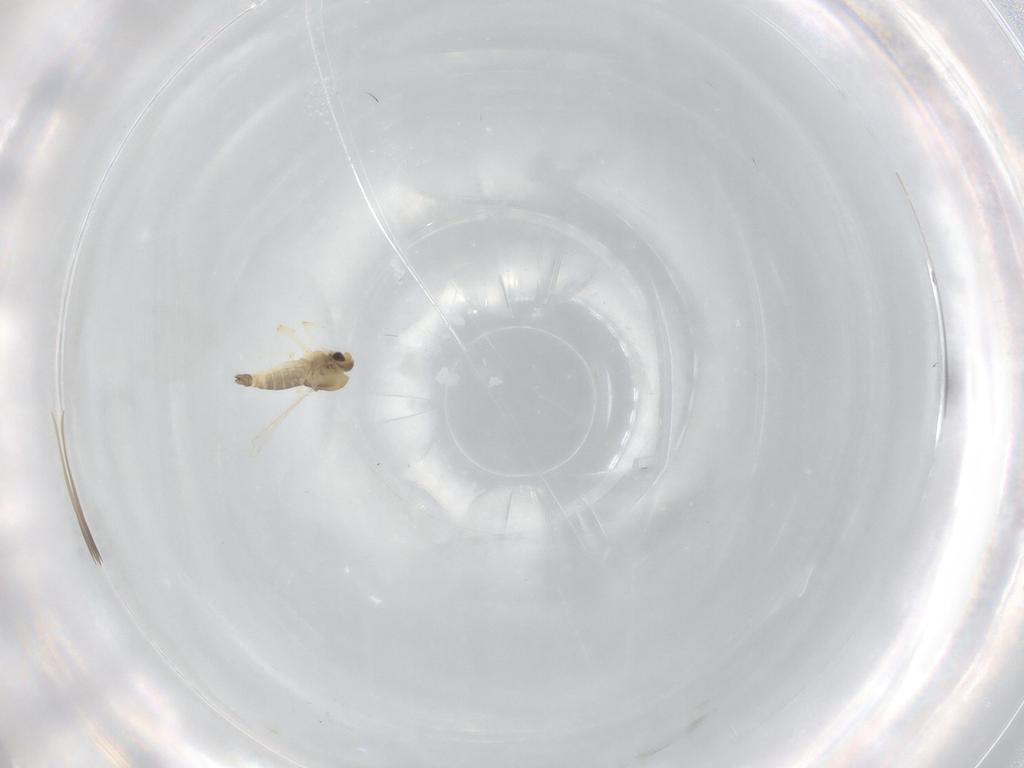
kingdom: Animalia
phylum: Arthropoda
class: Insecta
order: Diptera
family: Chironomidae
